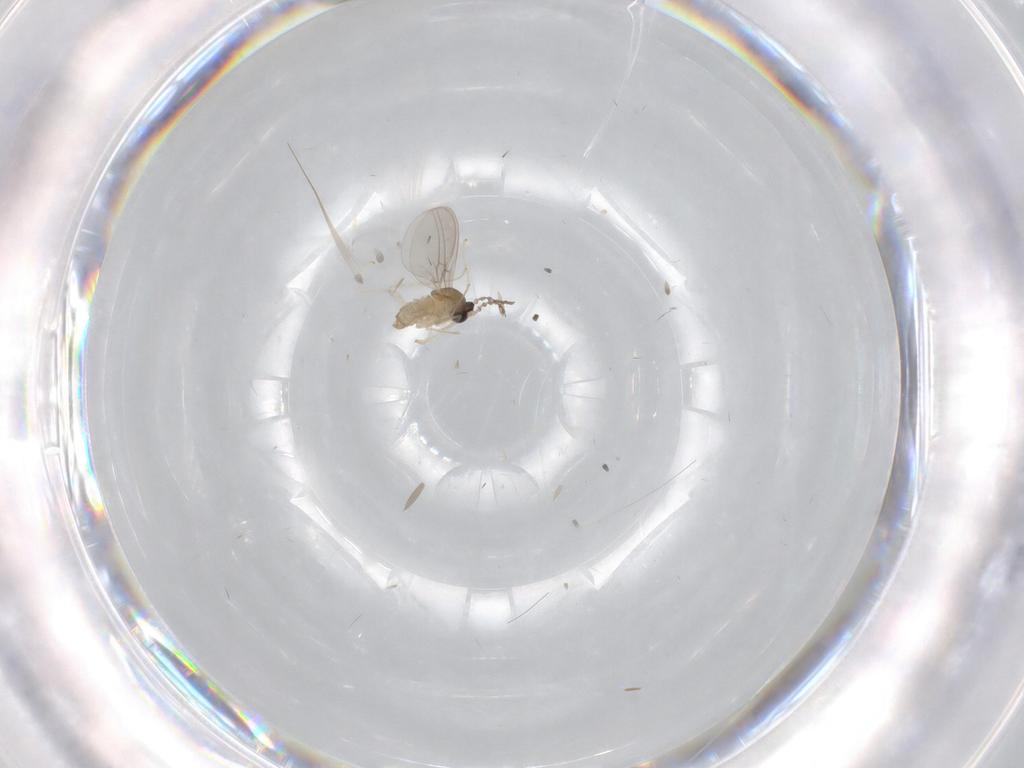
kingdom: Animalia
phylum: Arthropoda
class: Insecta
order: Diptera
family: Cecidomyiidae
